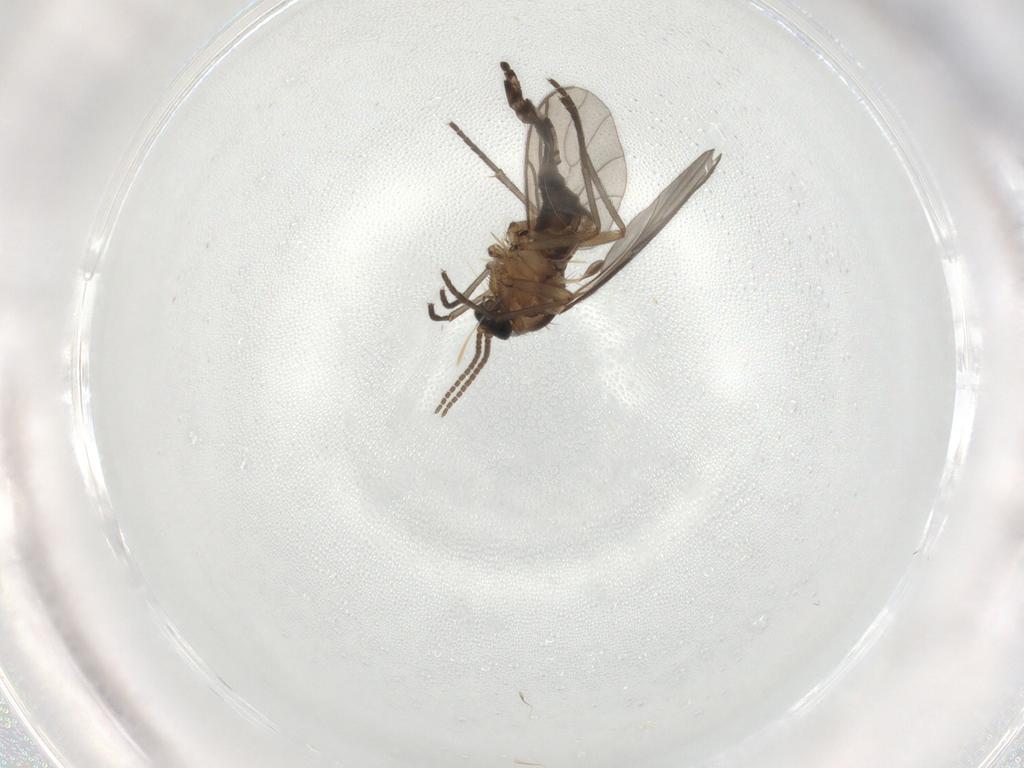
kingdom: Animalia
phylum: Arthropoda
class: Insecta
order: Diptera
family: Sciaridae
